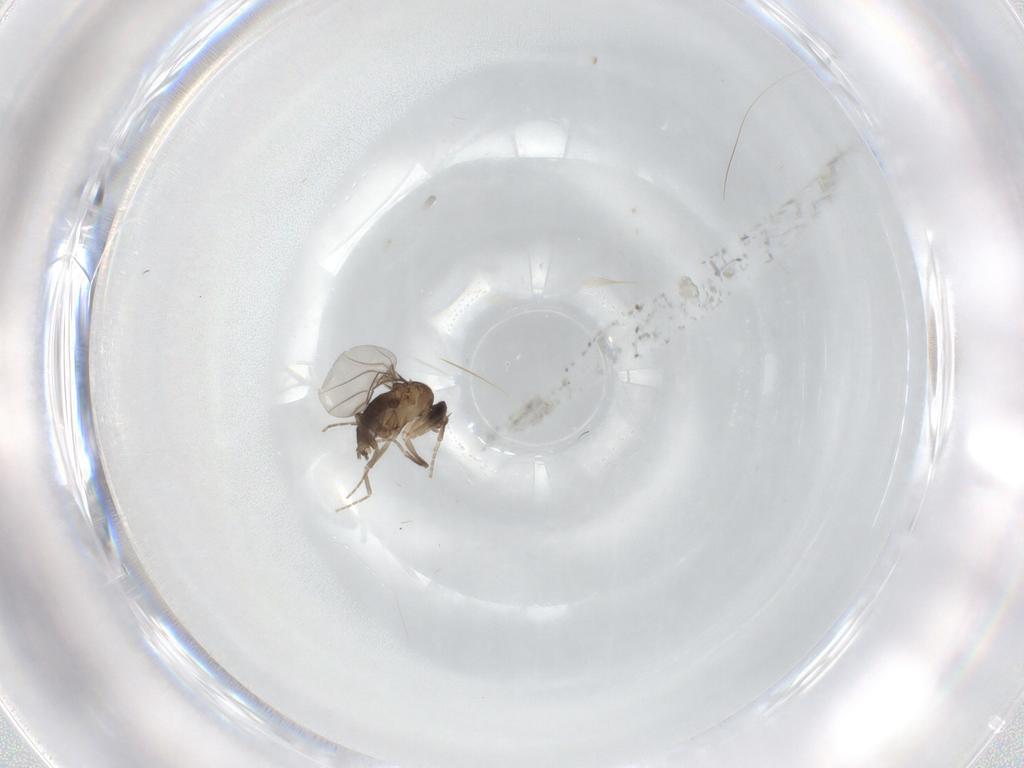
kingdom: Animalia
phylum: Arthropoda
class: Insecta
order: Diptera
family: Phoridae
